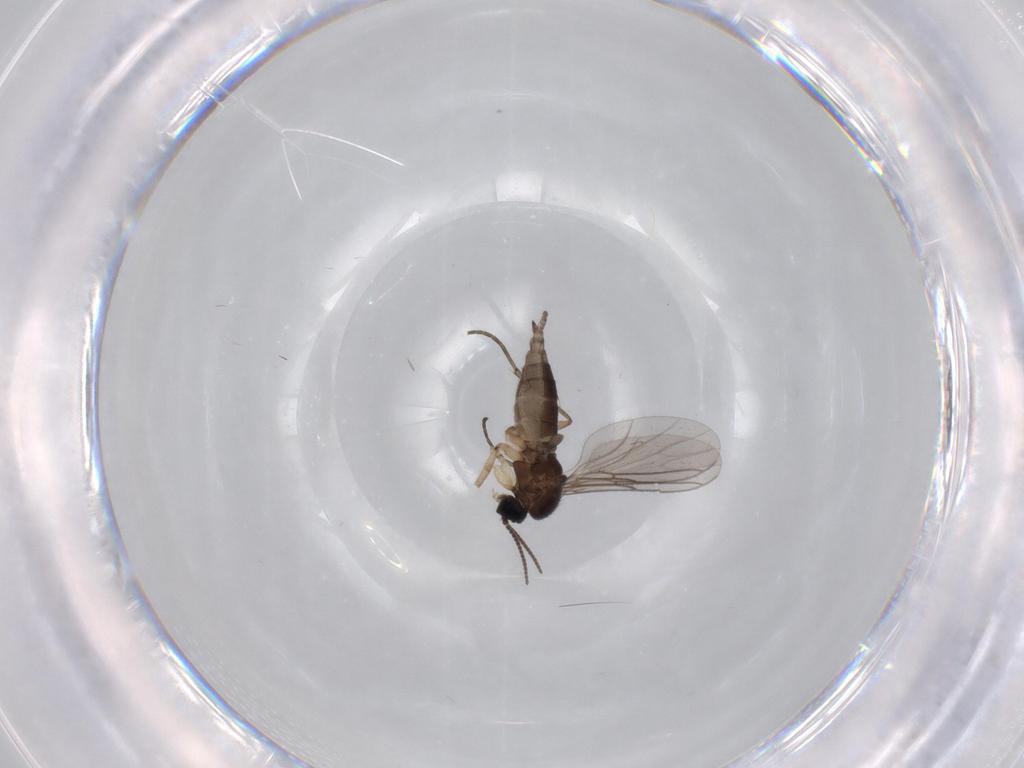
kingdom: Animalia
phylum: Arthropoda
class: Insecta
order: Diptera
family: Sciaridae
